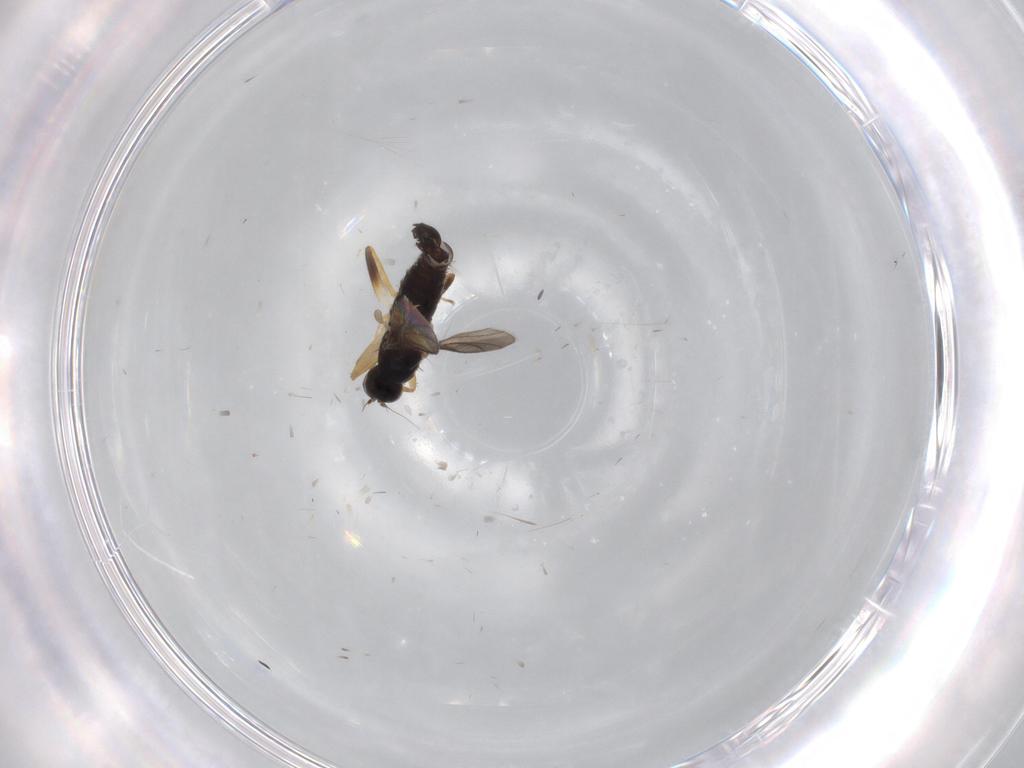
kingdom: Animalia
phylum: Arthropoda
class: Insecta
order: Diptera
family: Hybotidae
